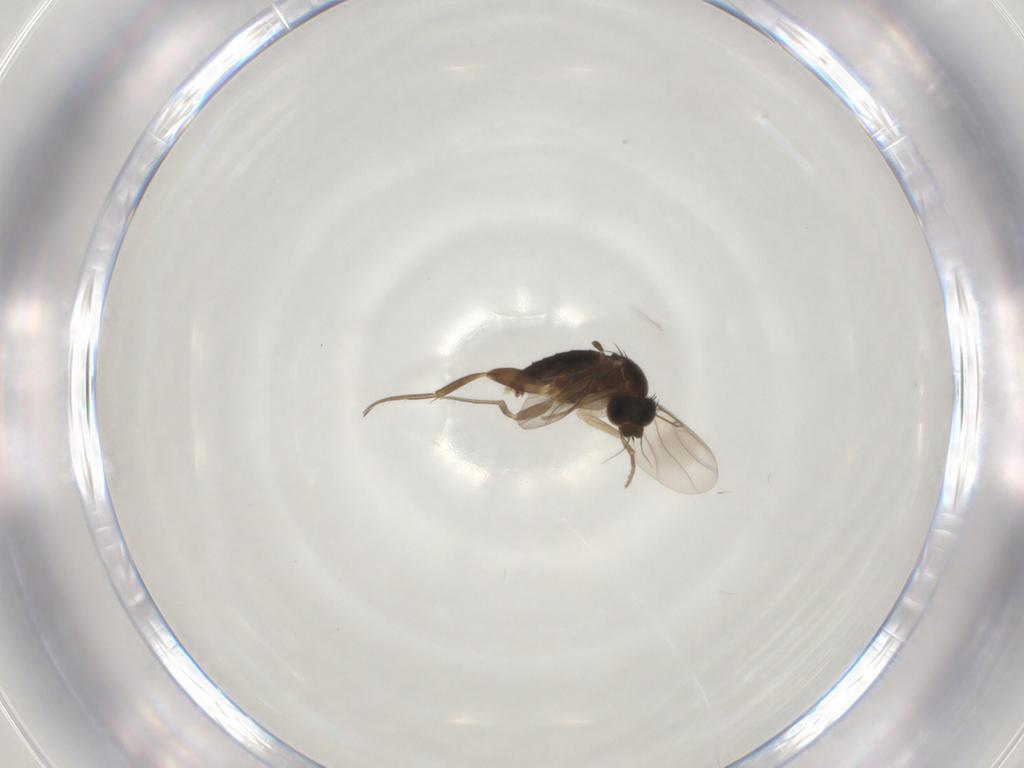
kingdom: Animalia
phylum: Arthropoda
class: Insecta
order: Diptera
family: Phoridae
